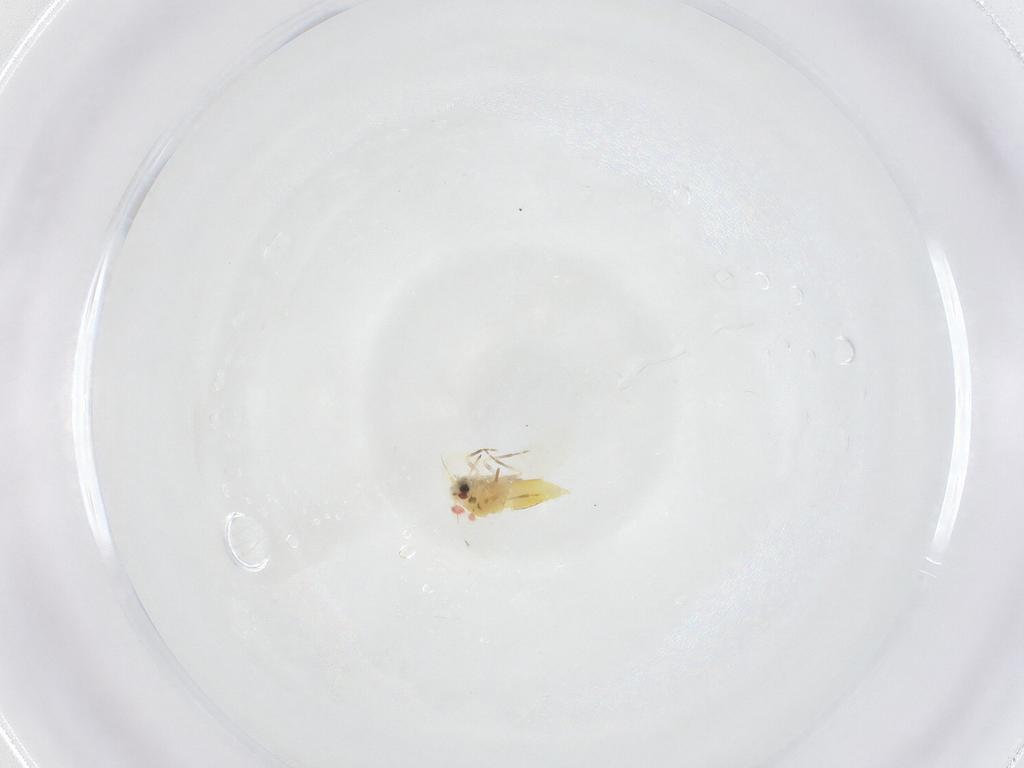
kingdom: Animalia
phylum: Arthropoda
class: Insecta
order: Hemiptera
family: Aleyrodidae
